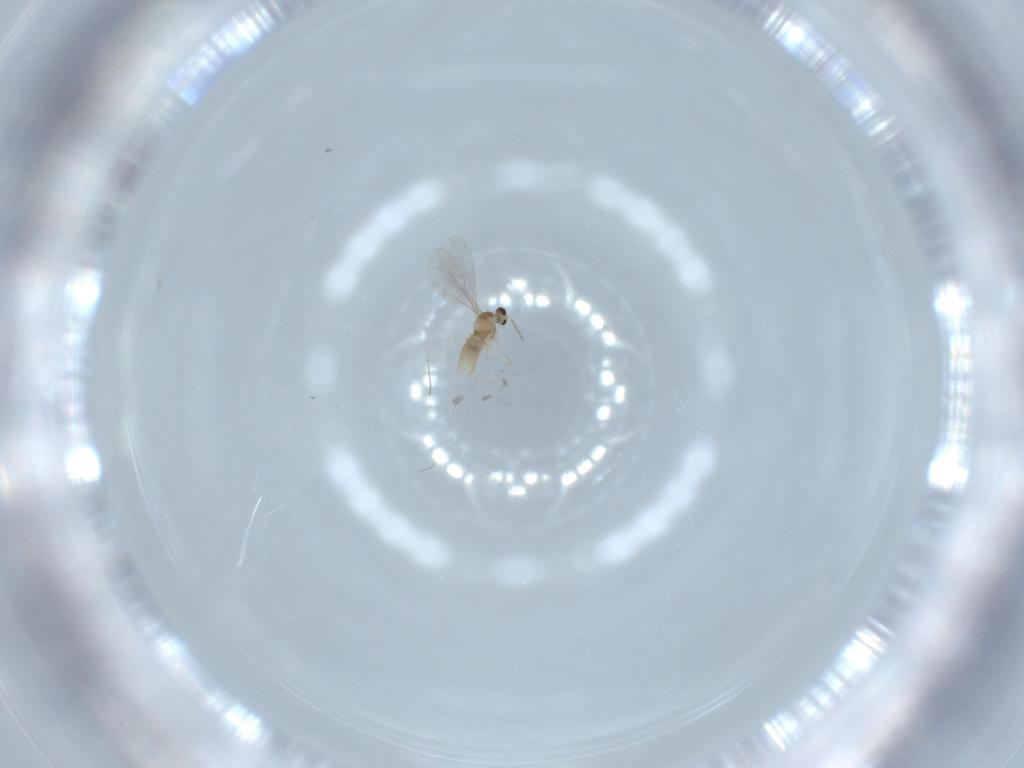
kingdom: Animalia
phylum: Arthropoda
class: Insecta
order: Diptera
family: Cecidomyiidae
